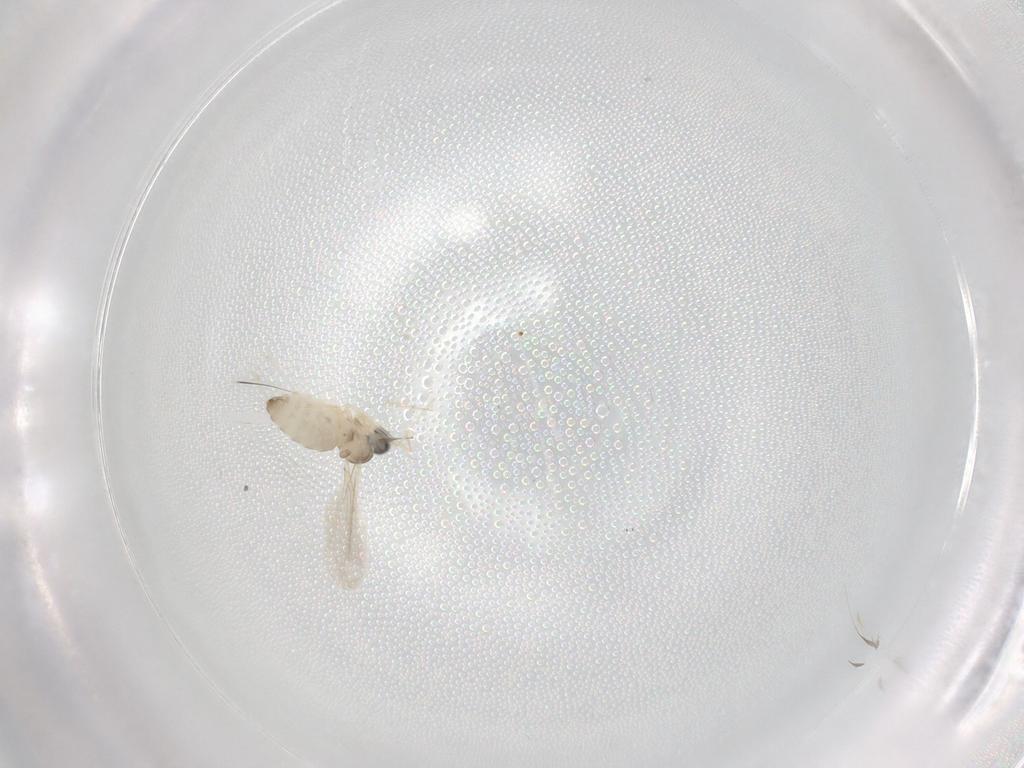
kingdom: Animalia
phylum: Arthropoda
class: Insecta
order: Diptera
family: Cecidomyiidae
